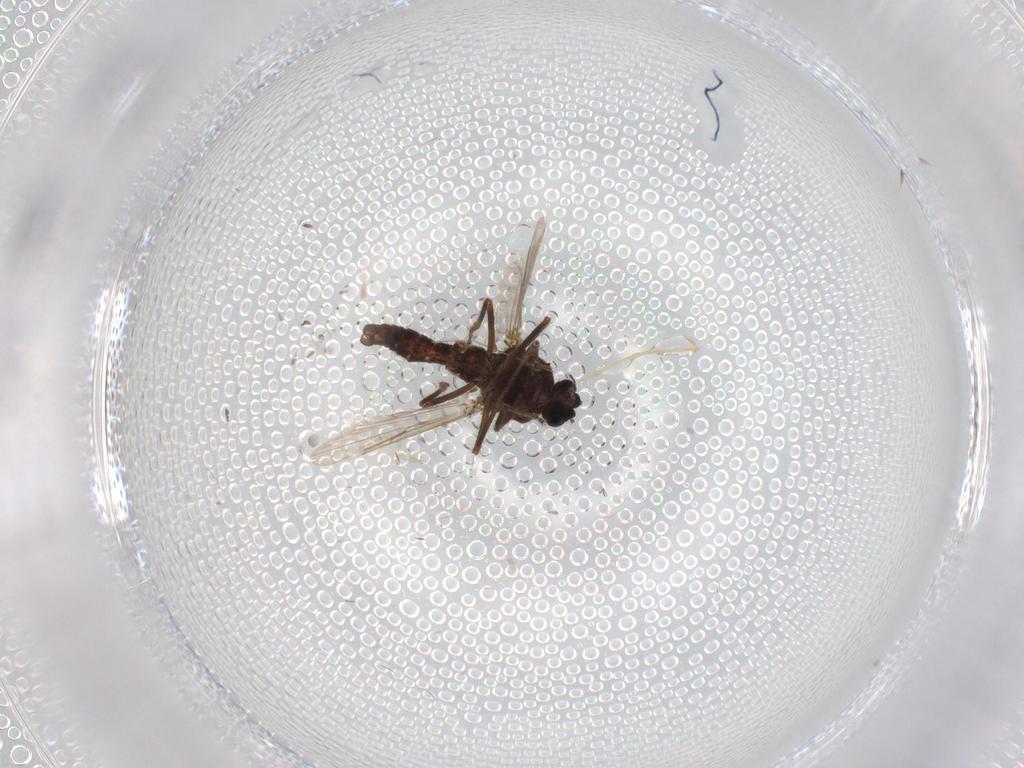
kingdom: Animalia
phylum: Arthropoda
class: Insecta
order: Diptera
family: Ceratopogonidae
